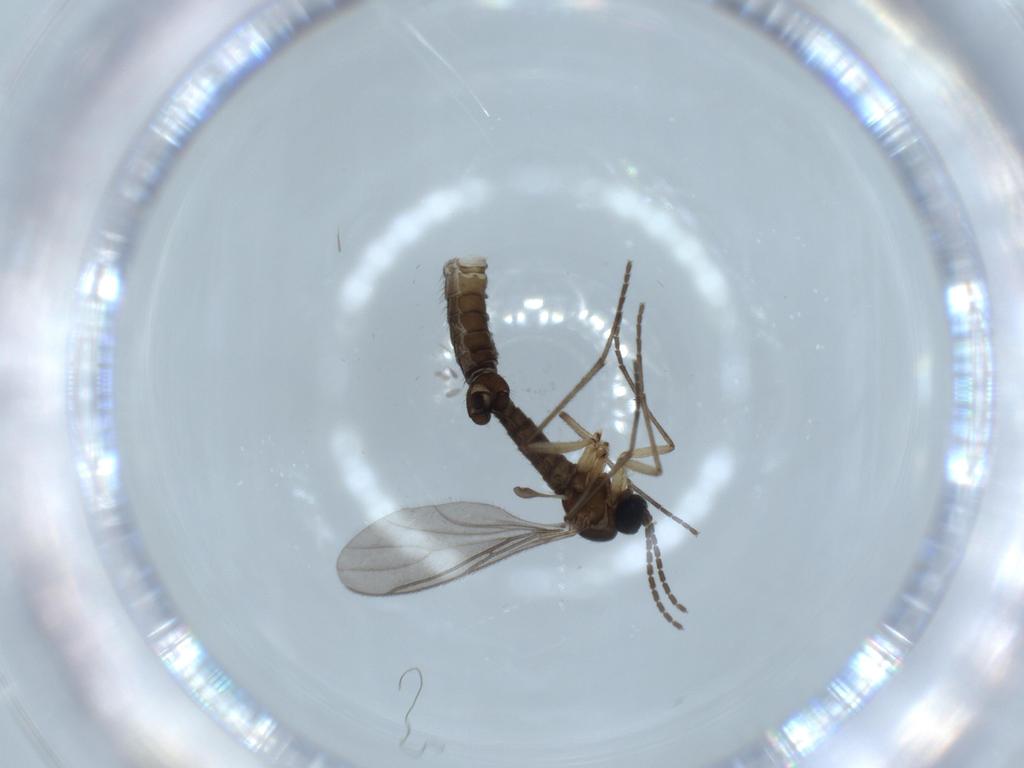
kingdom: Animalia
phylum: Arthropoda
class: Insecta
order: Diptera
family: Sciaridae
